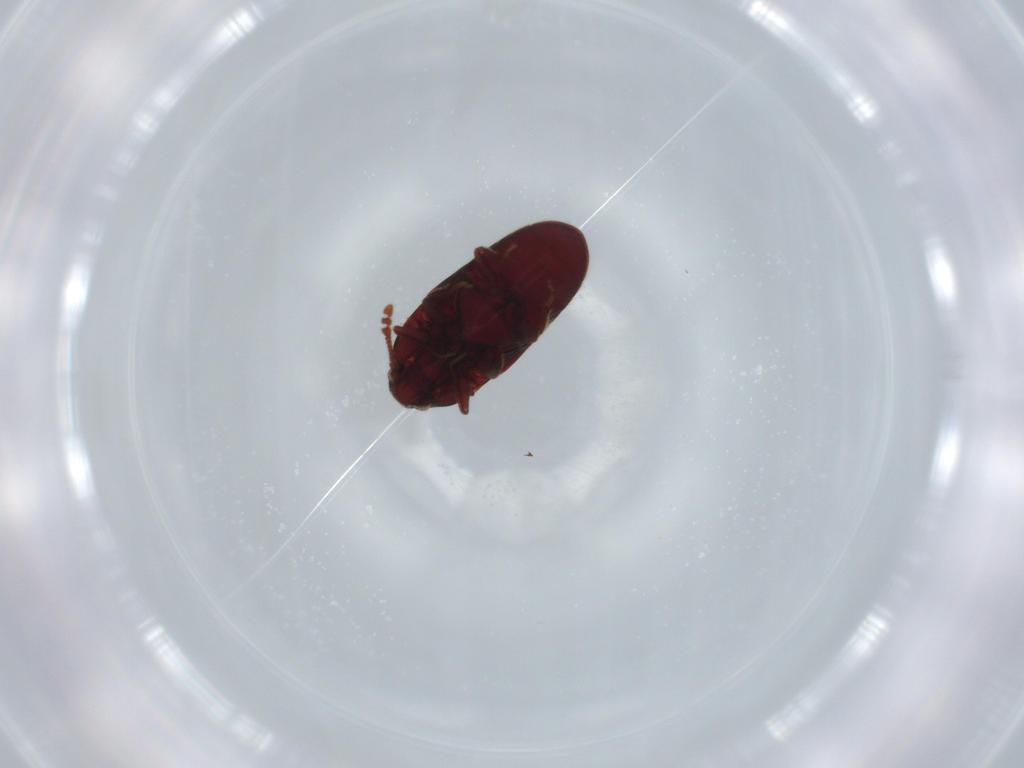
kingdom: Animalia
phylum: Arthropoda
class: Insecta
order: Coleoptera
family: Throscidae
